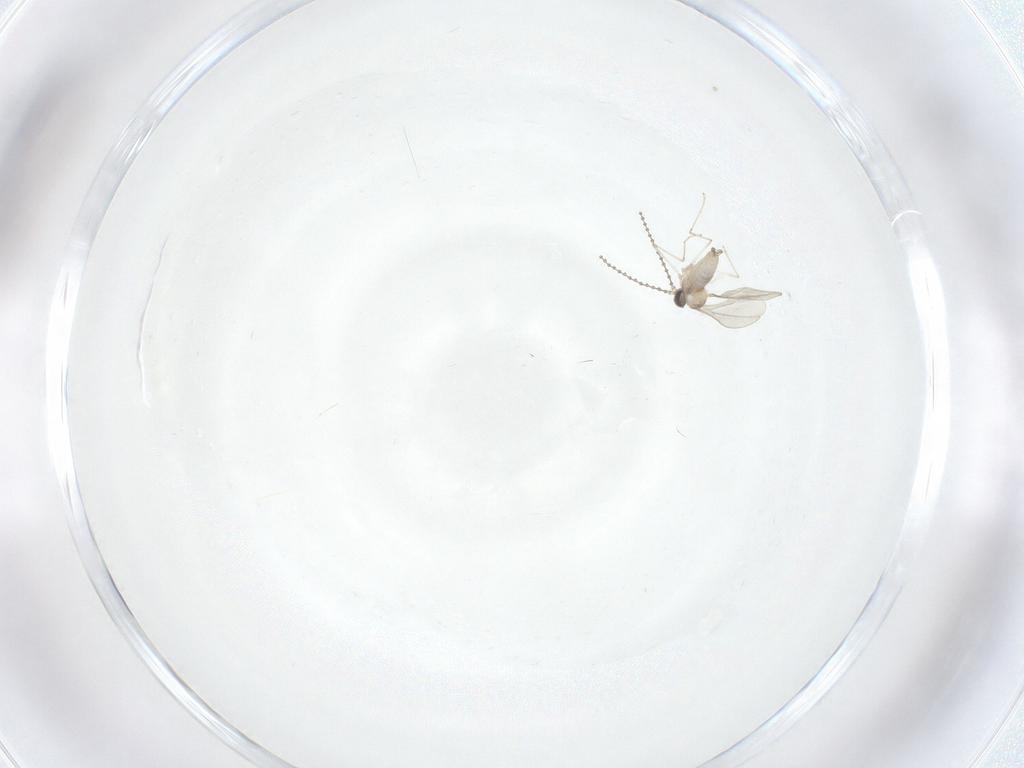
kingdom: Animalia
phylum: Arthropoda
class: Insecta
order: Diptera
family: Cecidomyiidae
